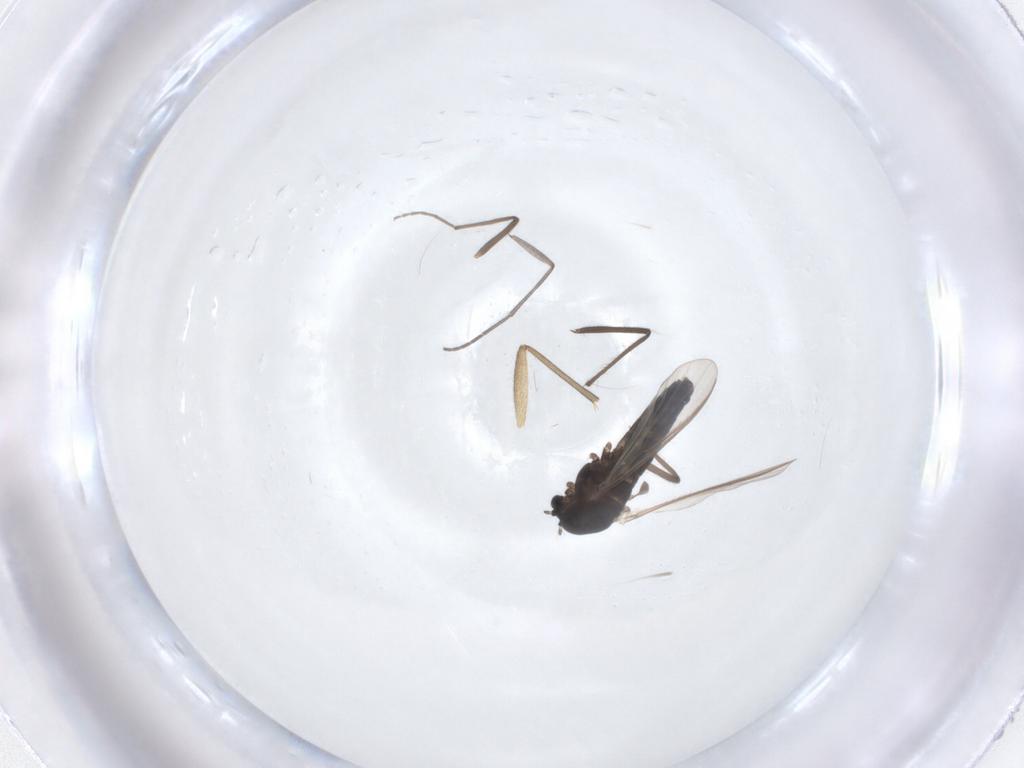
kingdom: Animalia
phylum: Arthropoda
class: Insecta
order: Diptera
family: Sciaridae
